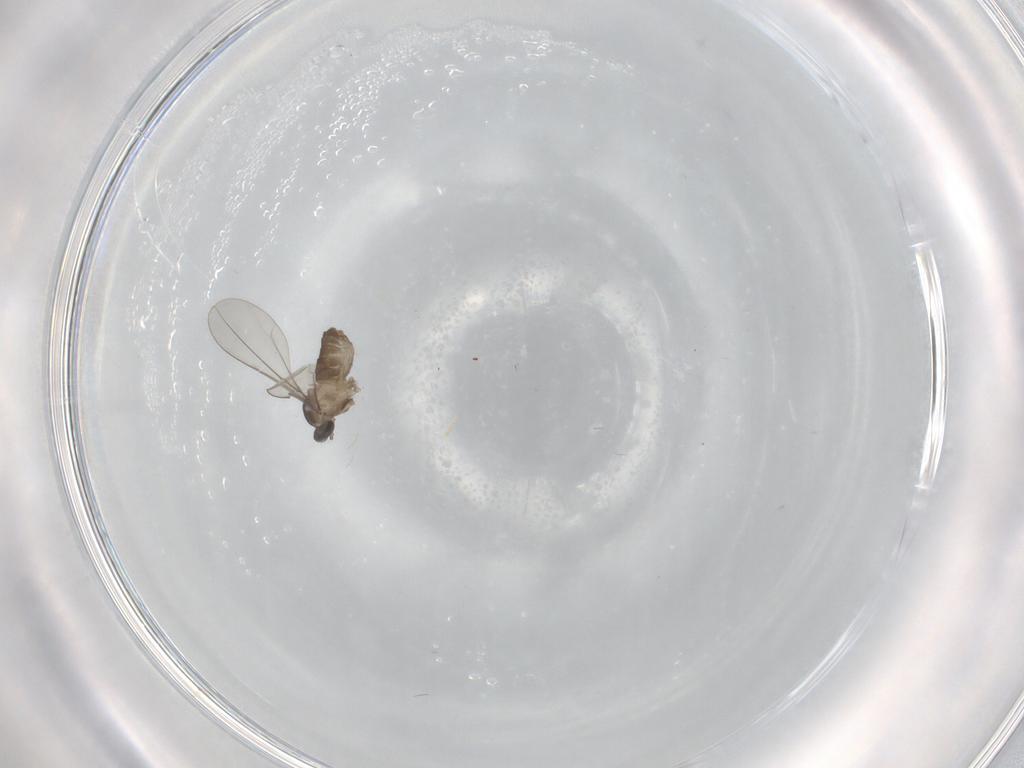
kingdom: Animalia
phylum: Arthropoda
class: Insecta
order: Diptera
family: Cecidomyiidae
